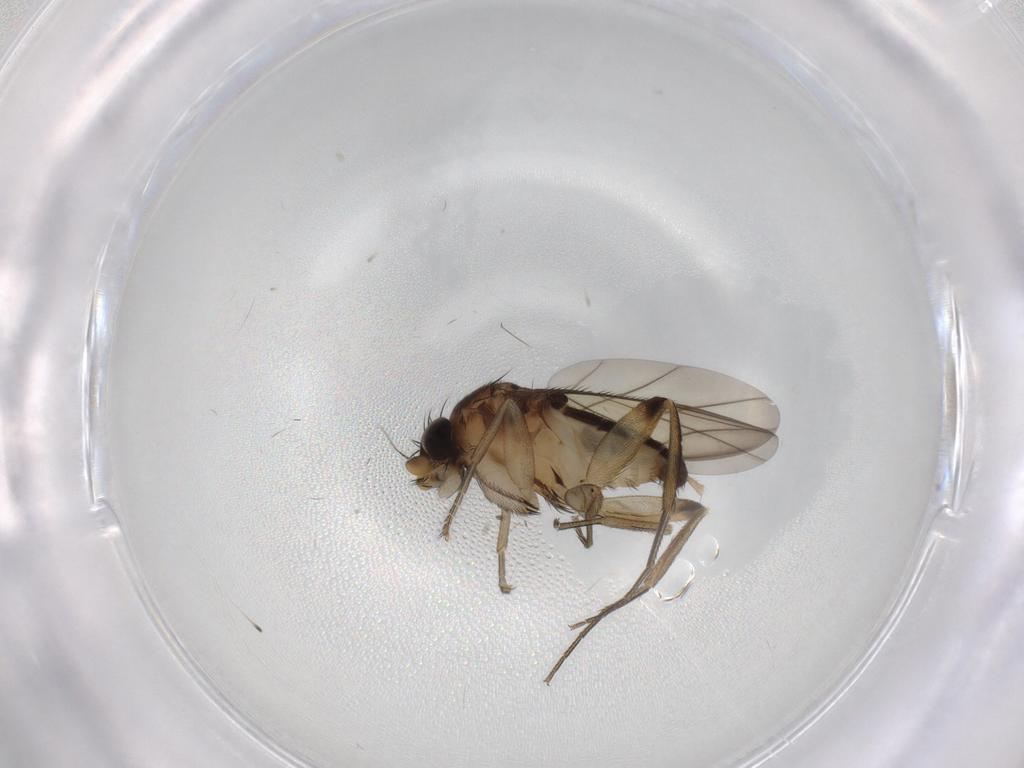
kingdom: Animalia
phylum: Arthropoda
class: Insecta
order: Diptera
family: Phoridae
